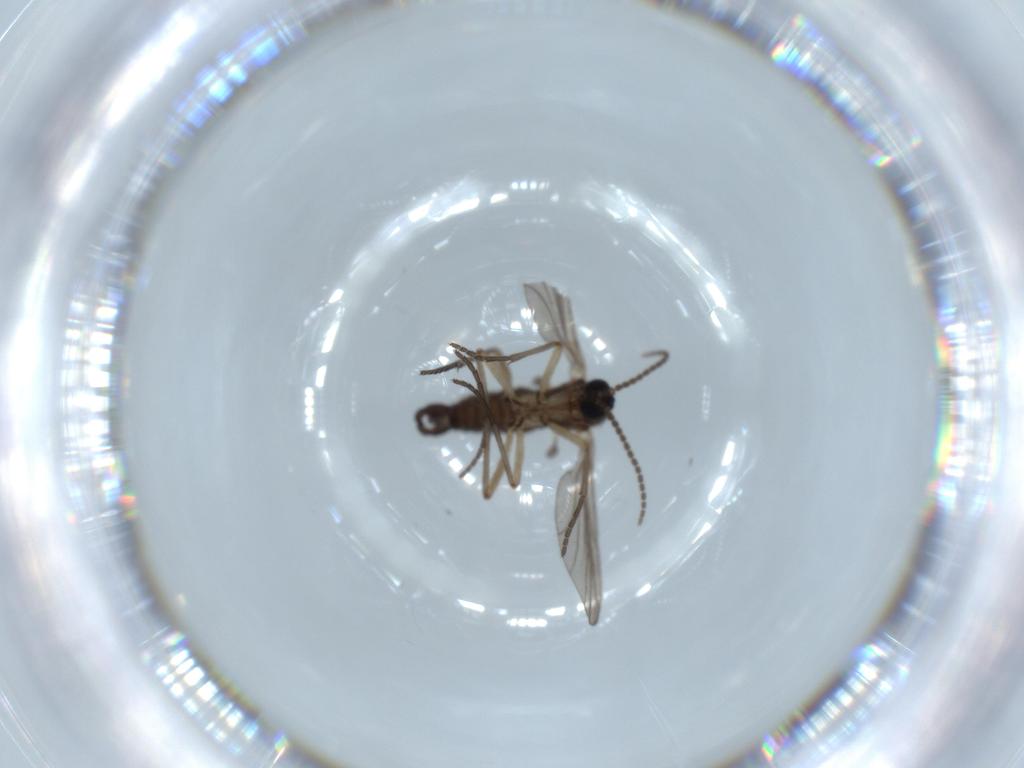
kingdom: Animalia
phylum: Arthropoda
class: Insecta
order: Diptera
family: Sciaridae
